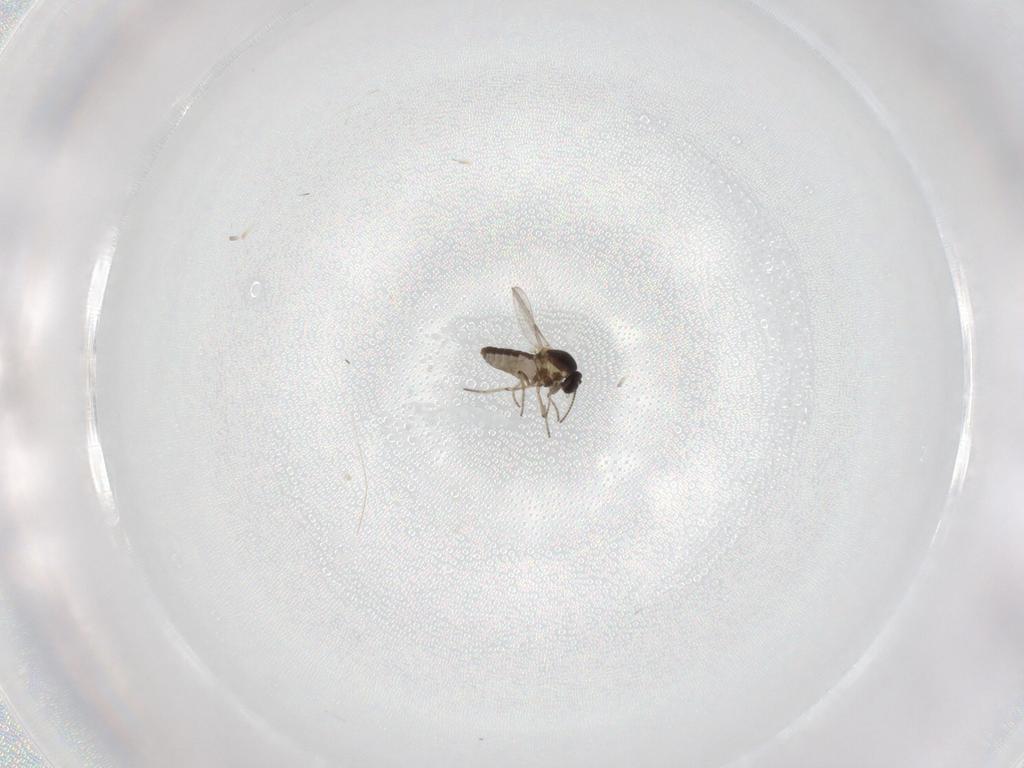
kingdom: Animalia
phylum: Arthropoda
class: Insecta
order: Diptera
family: Ceratopogonidae
